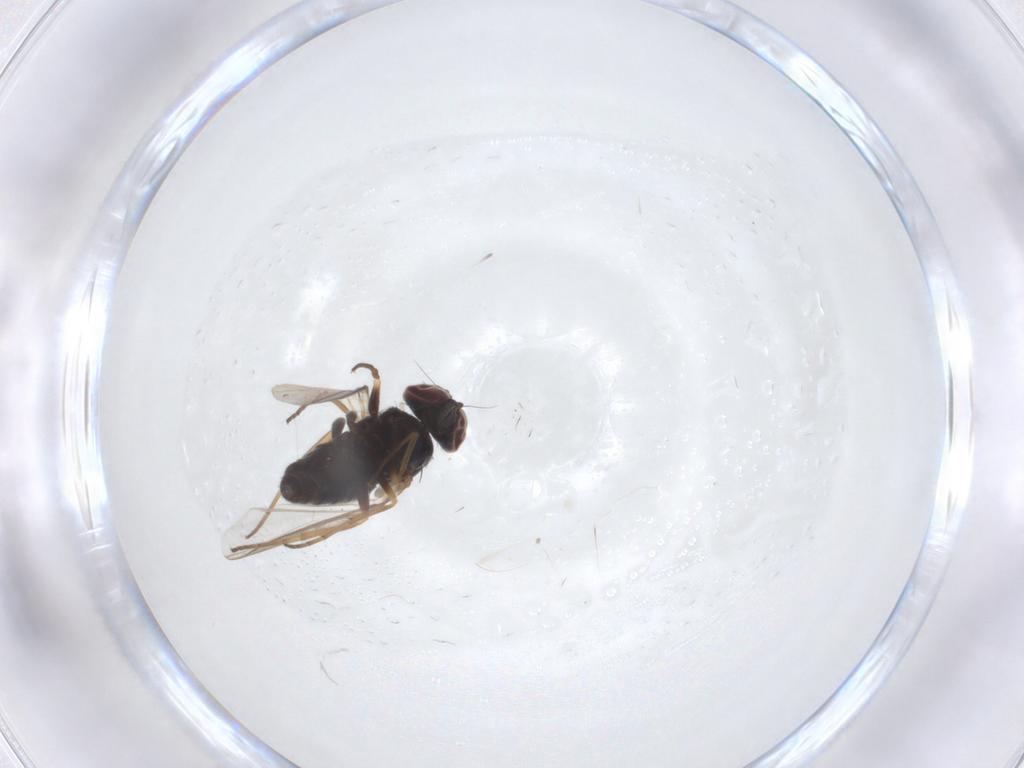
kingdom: Animalia
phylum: Arthropoda
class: Insecta
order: Diptera
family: Dolichopodidae
